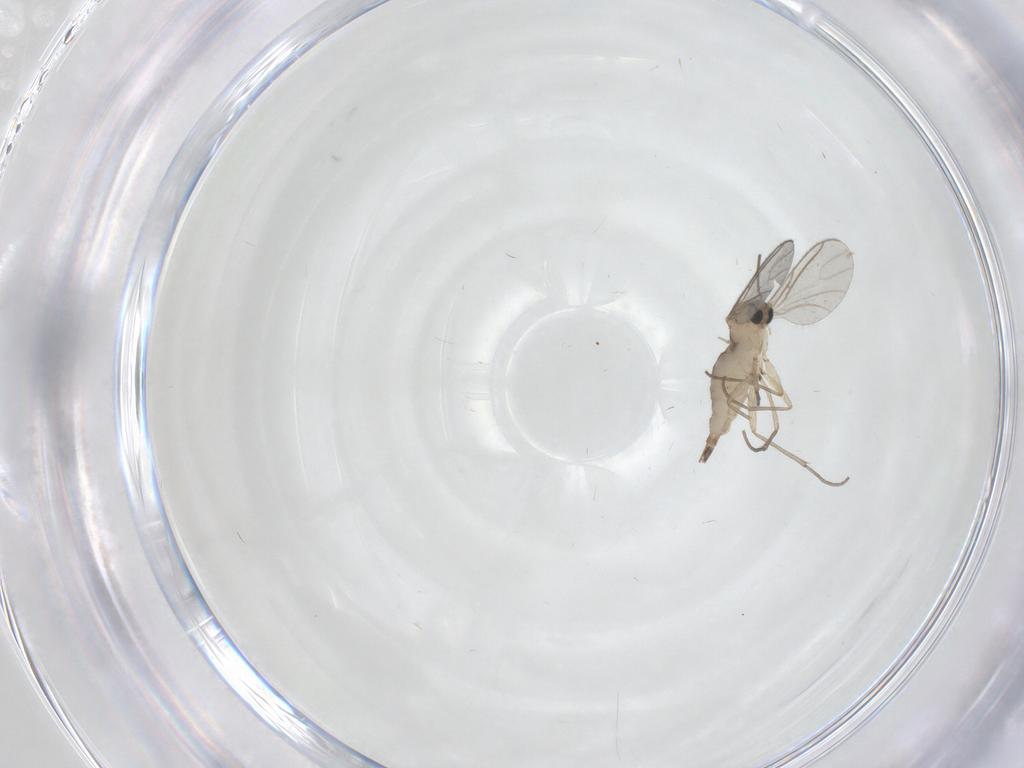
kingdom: Animalia
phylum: Arthropoda
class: Insecta
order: Diptera
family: Sciaridae
